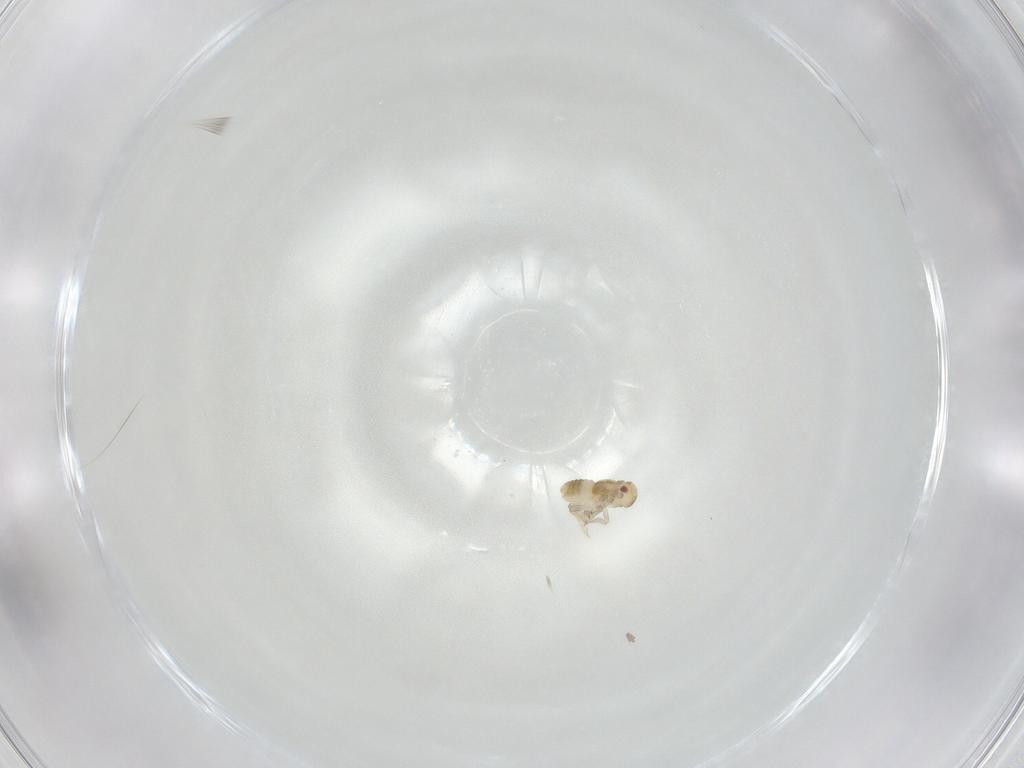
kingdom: Animalia
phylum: Arthropoda
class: Insecta
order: Hemiptera
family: Delphacidae
